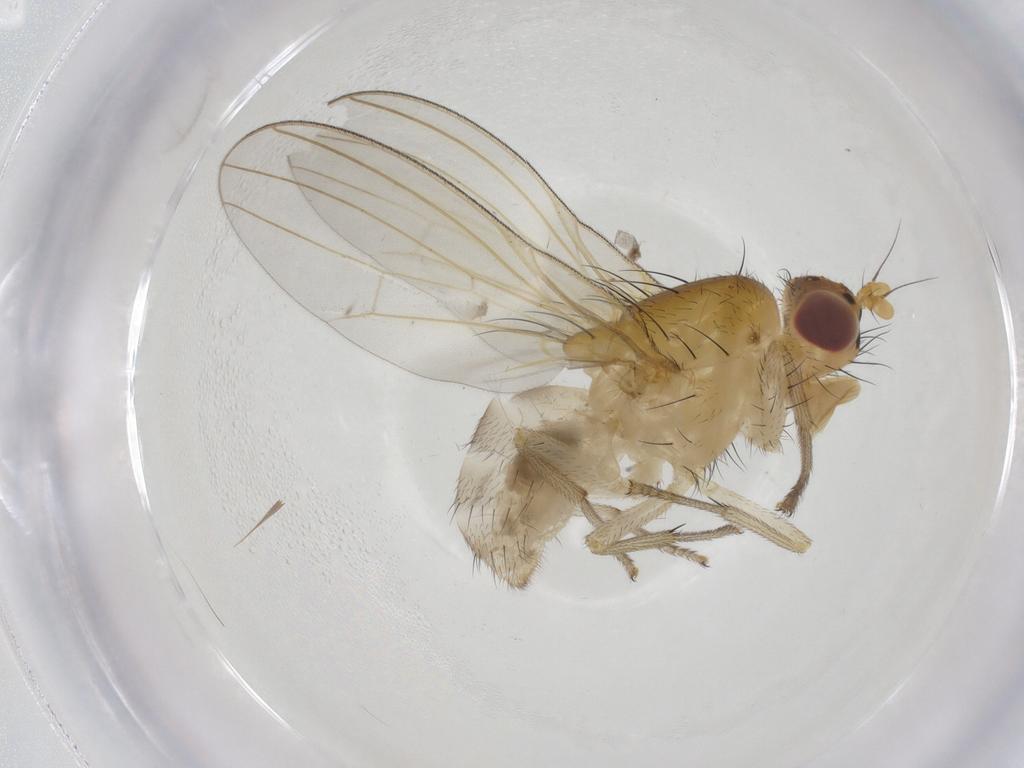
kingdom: Animalia
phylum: Arthropoda
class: Insecta
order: Diptera
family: Lauxaniidae
